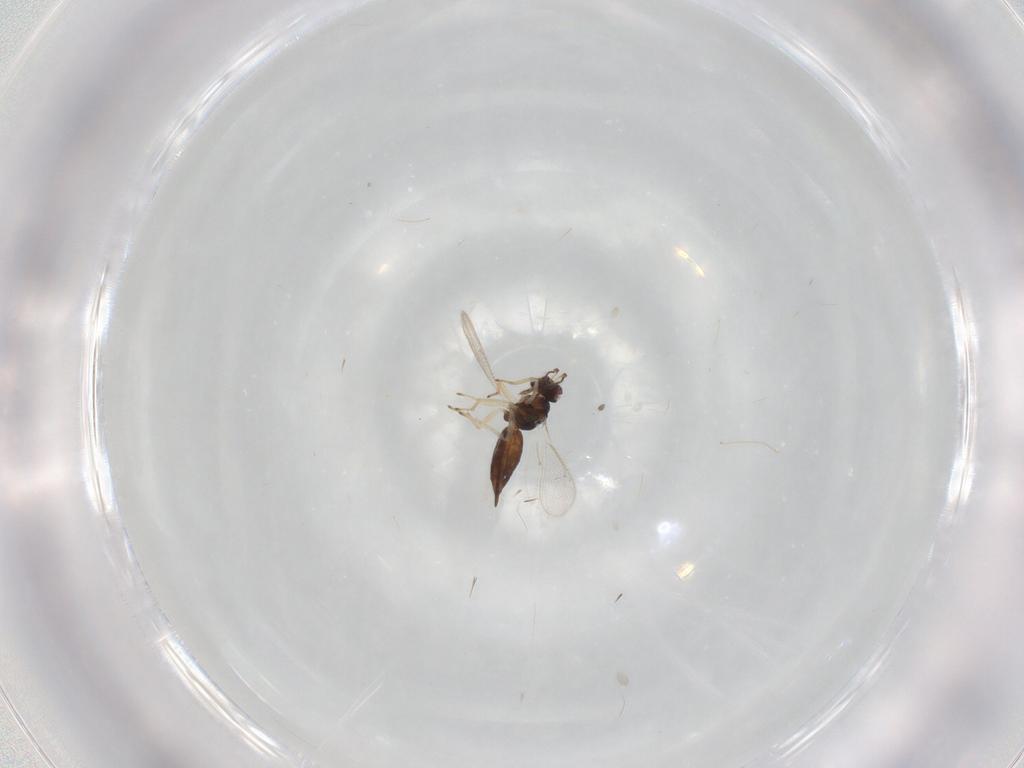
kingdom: Animalia
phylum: Arthropoda
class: Insecta
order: Hymenoptera
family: Eulophidae
